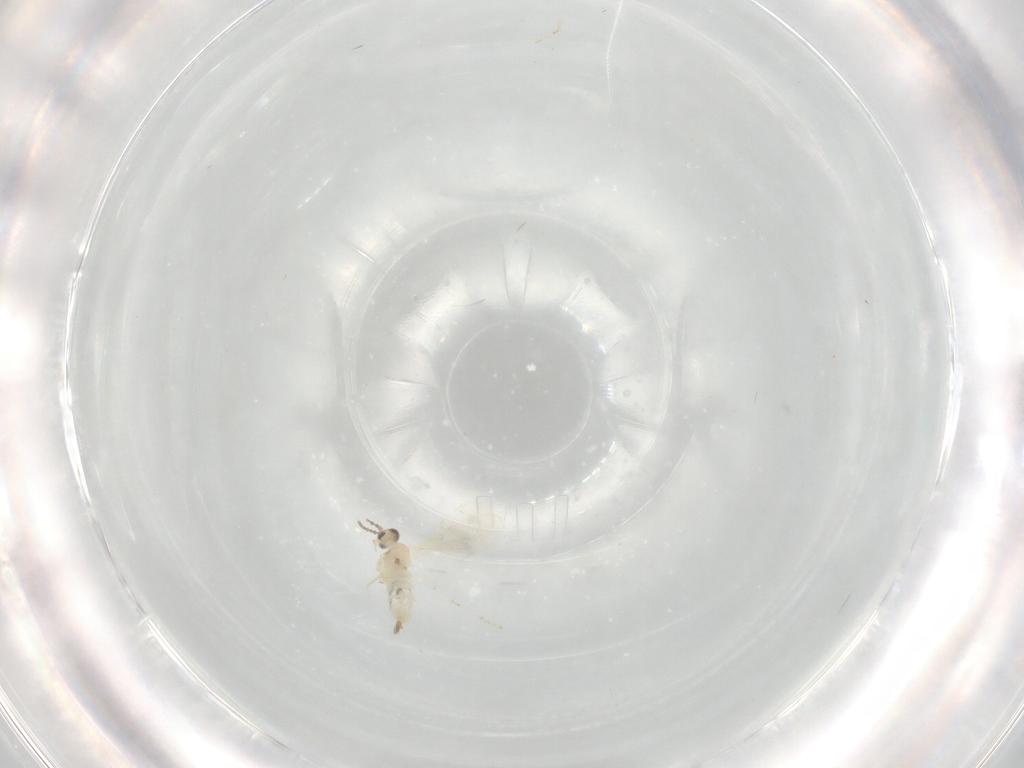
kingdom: Animalia
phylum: Arthropoda
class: Insecta
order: Diptera
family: Cecidomyiidae
